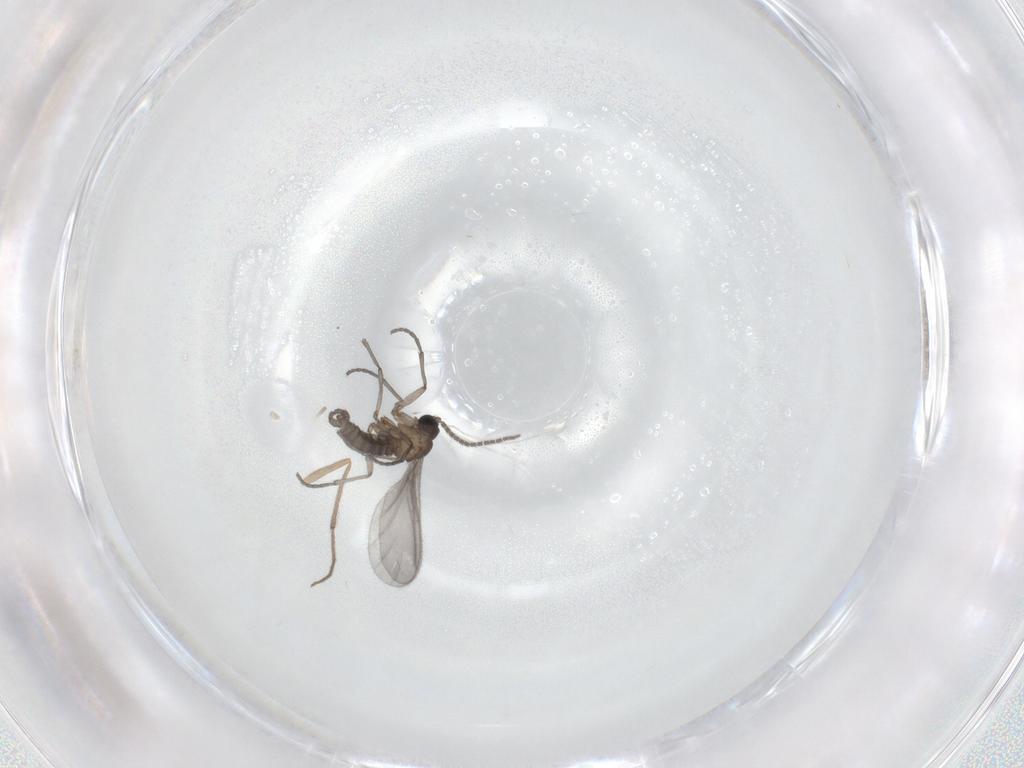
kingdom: Animalia
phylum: Arthropoda
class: Insecta
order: Diptera
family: Sciaridae
